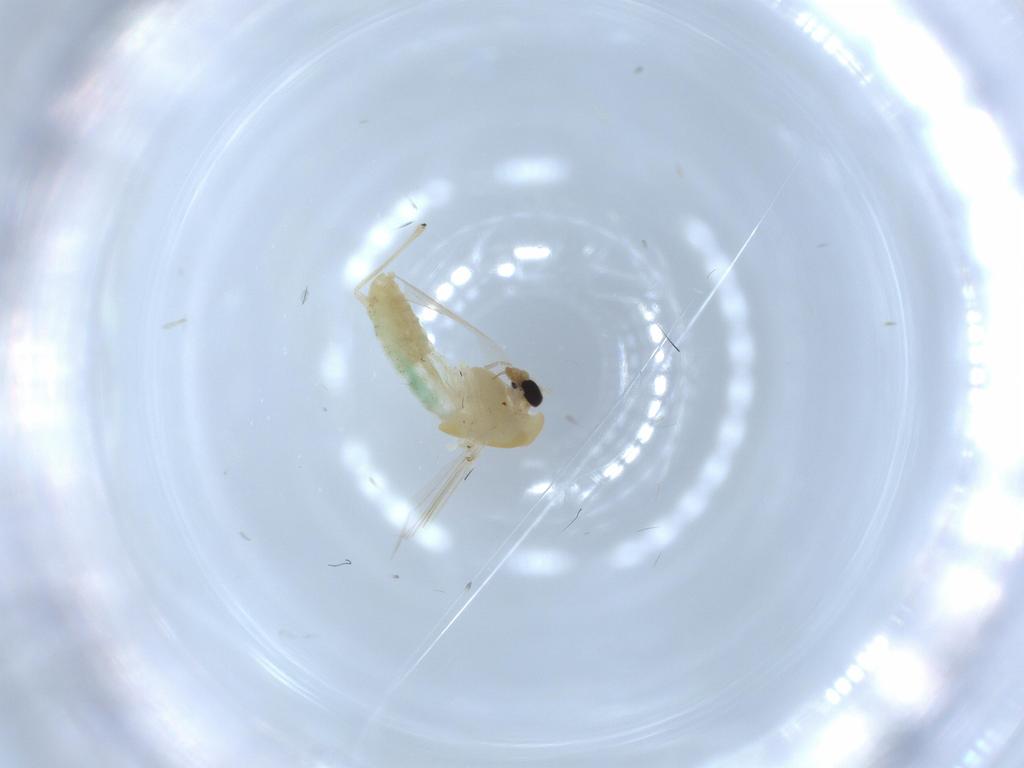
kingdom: Animalia
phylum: Arthropoda
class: Insecta
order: Diptera
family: Chironomidae
